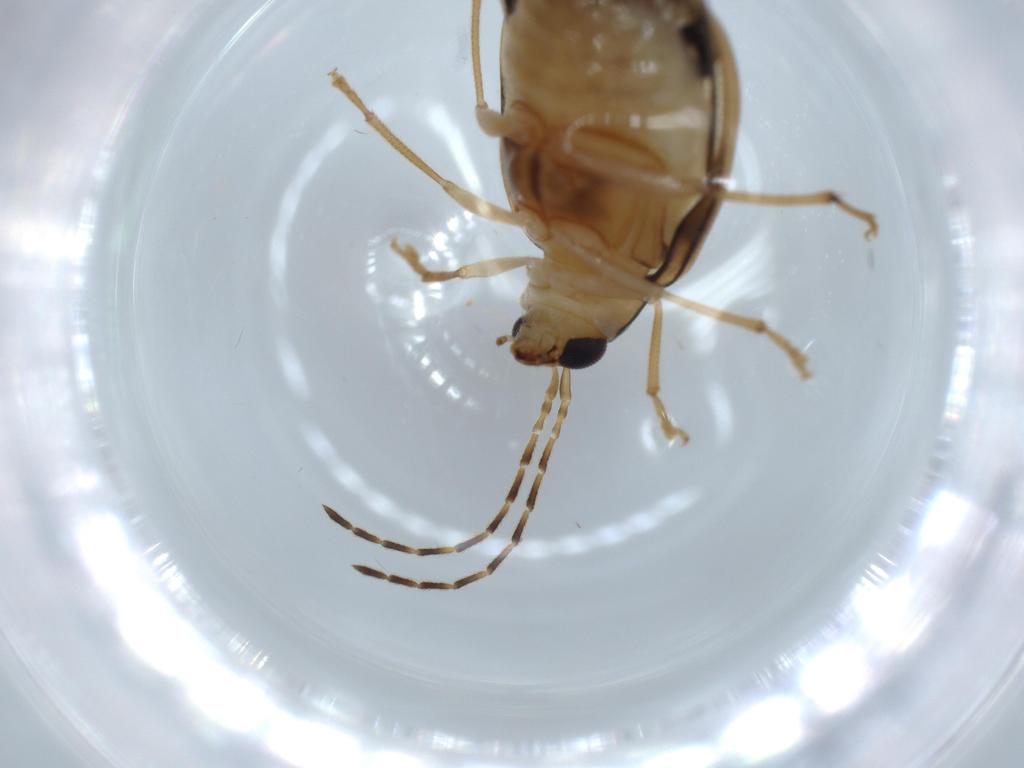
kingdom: Animalia
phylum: Arthropoda
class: Insecta
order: Coleoptera
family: Chrysomelidae
